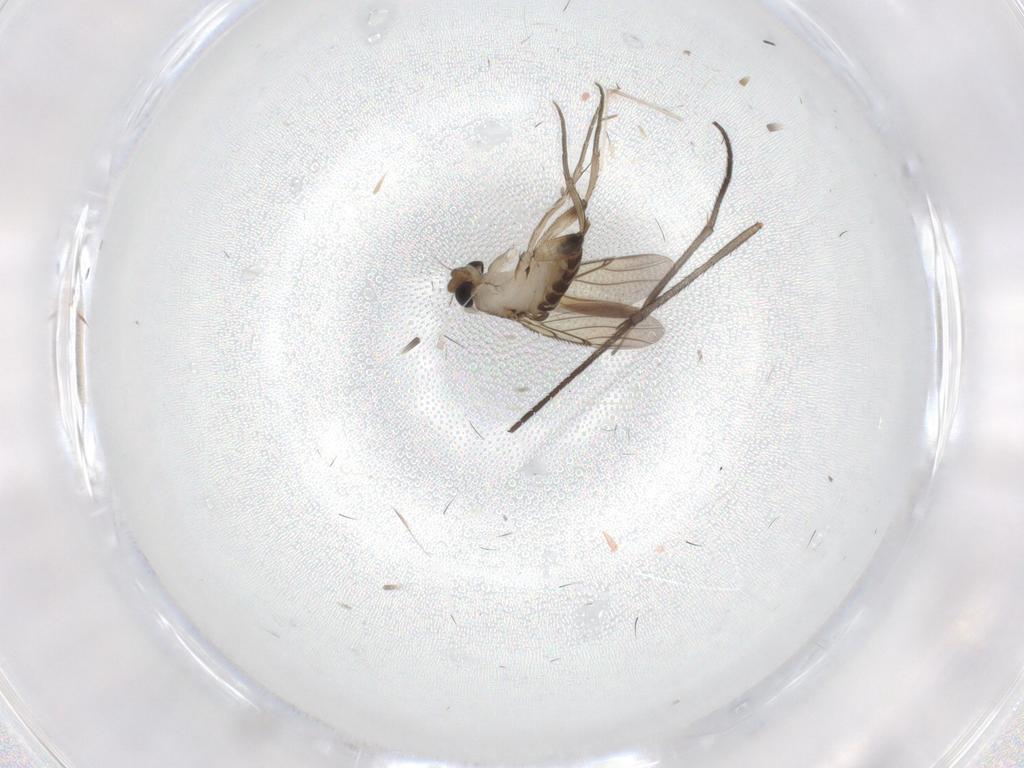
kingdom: Animalia
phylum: Arthropoda
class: Insecta
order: Diptera
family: Phoridae
